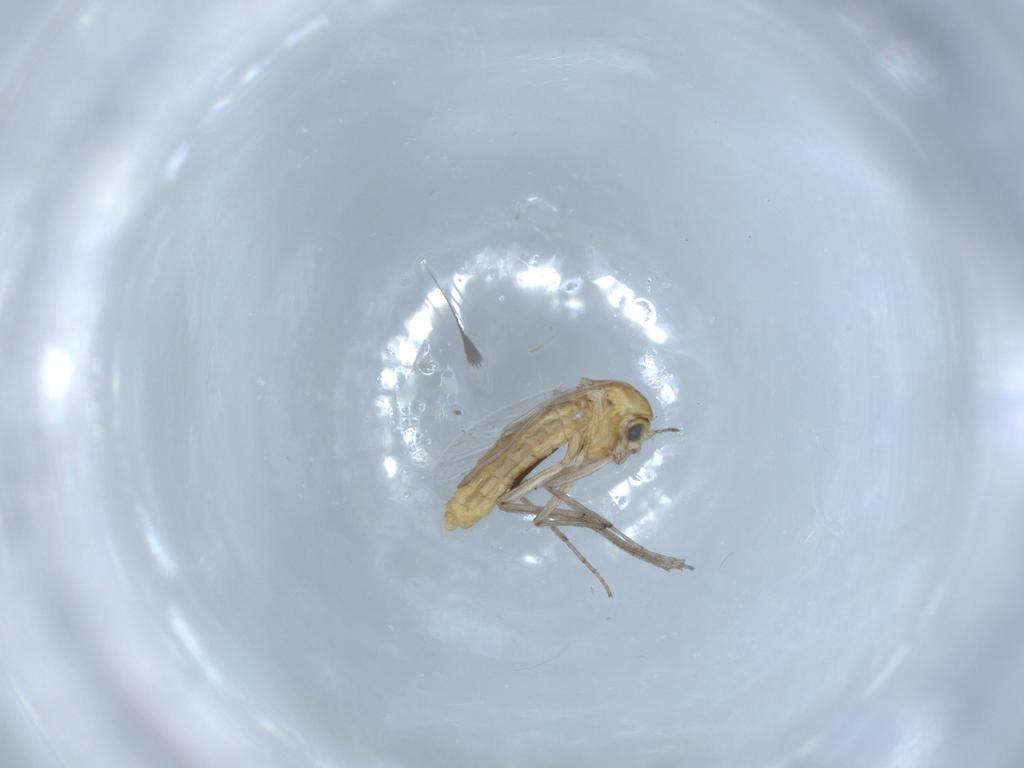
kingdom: Animalia
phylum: Arthropoda
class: Insecta
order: Diptera
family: Chironomidae
